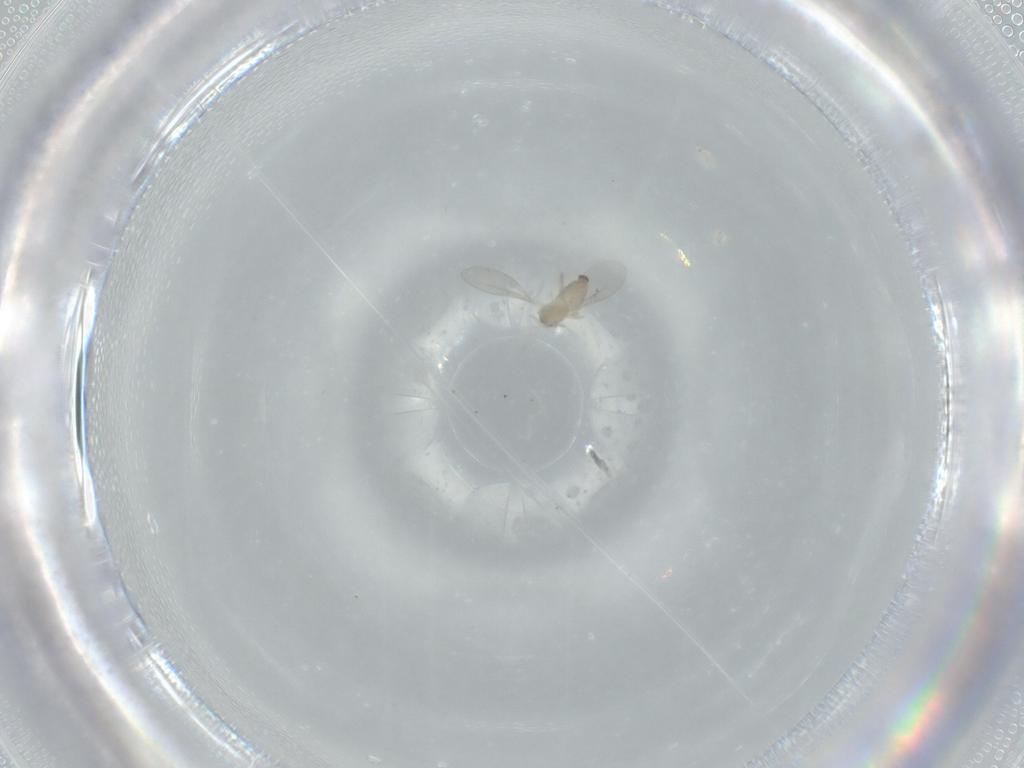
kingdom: Animalia
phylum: Arthropoda
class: Insecta
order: Diptera
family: Cecidomyiidae
